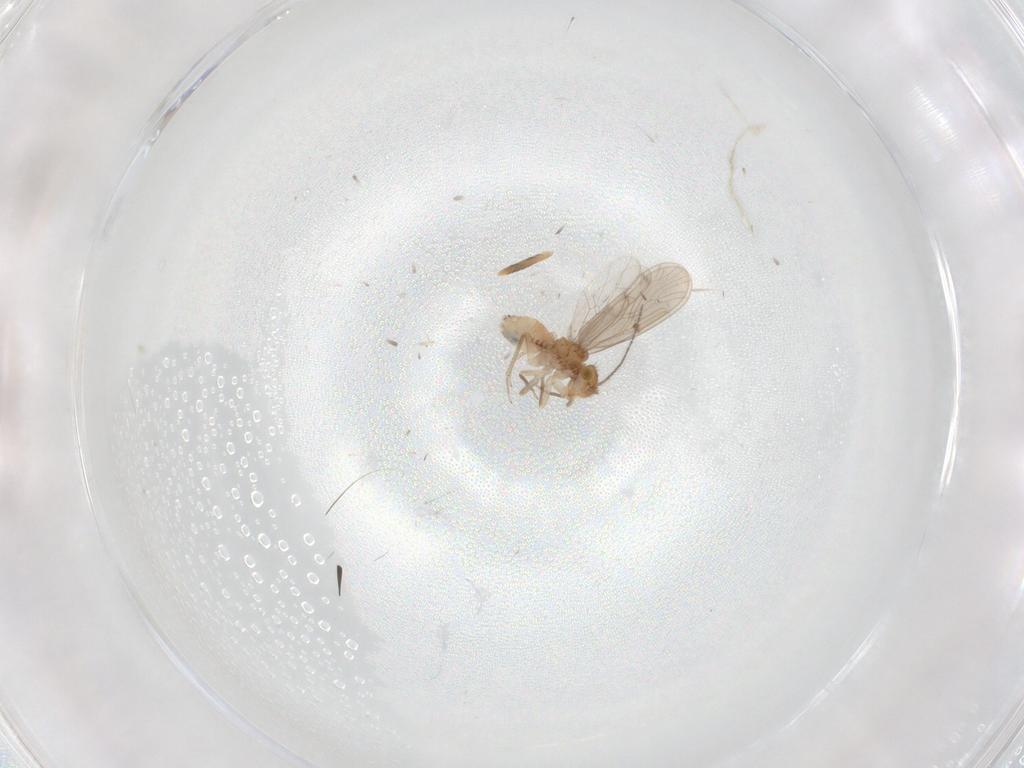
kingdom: Animalia
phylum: Arthropoda
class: Insecta
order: Psocodea
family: Ectopsocidae
